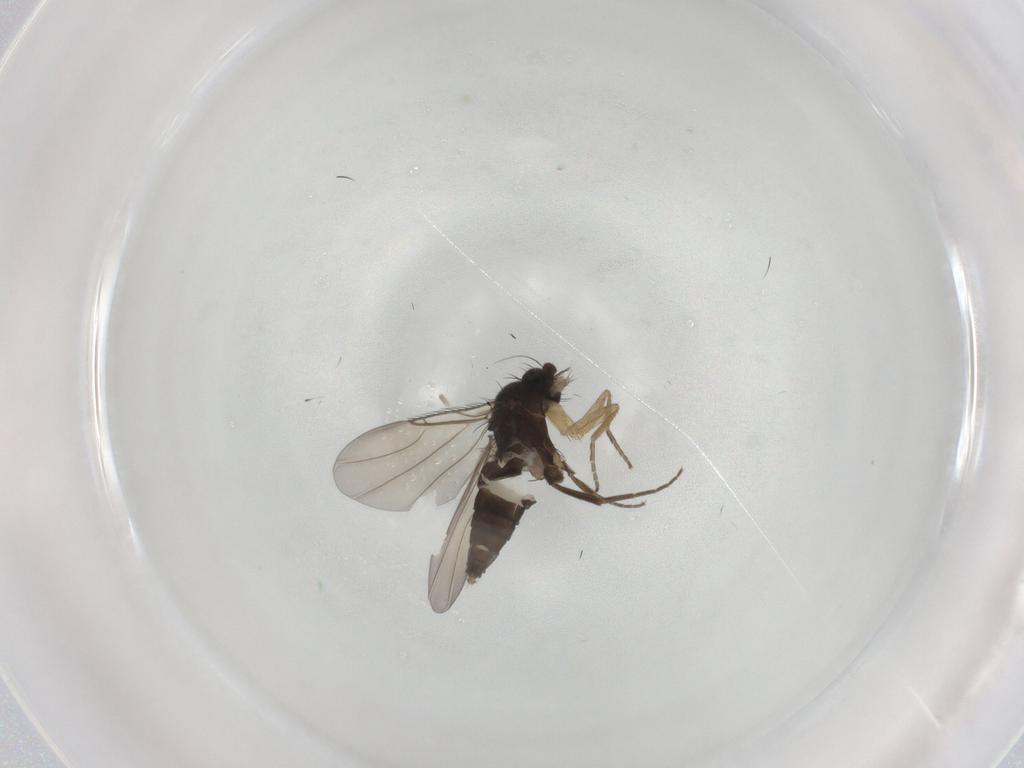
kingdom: Animalia
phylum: Arthropoda
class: Insecta
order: Diptera
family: Phoridae
